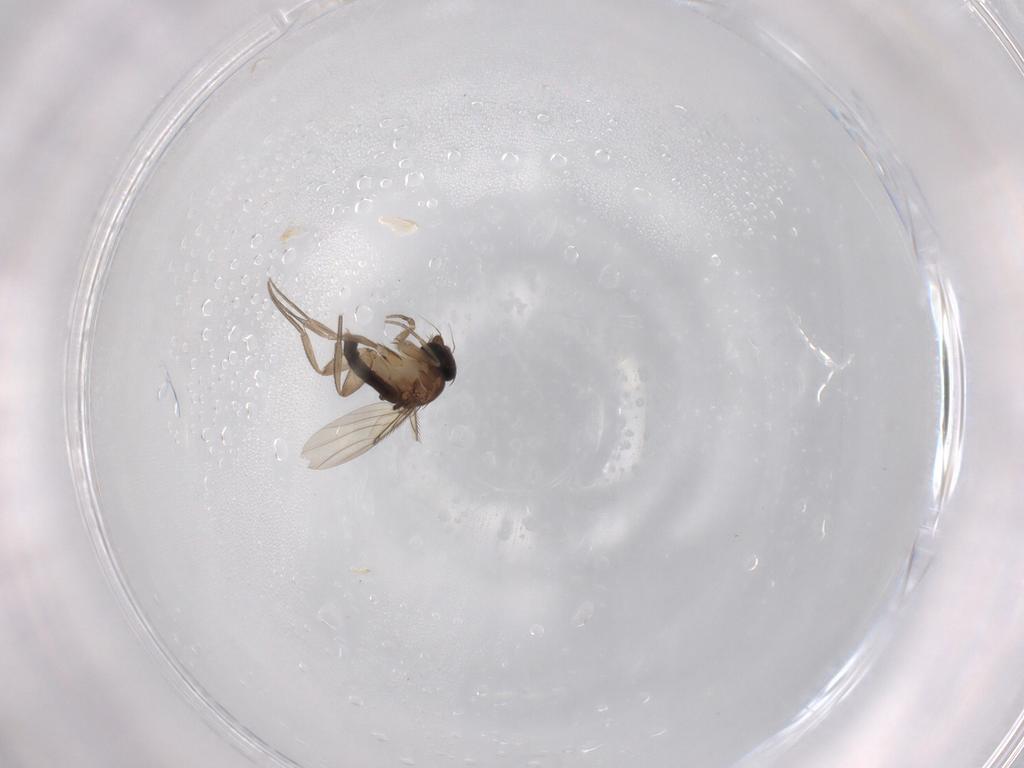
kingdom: Animalia
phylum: Arthropoda
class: Insecta
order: Diptera
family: Phoridae
